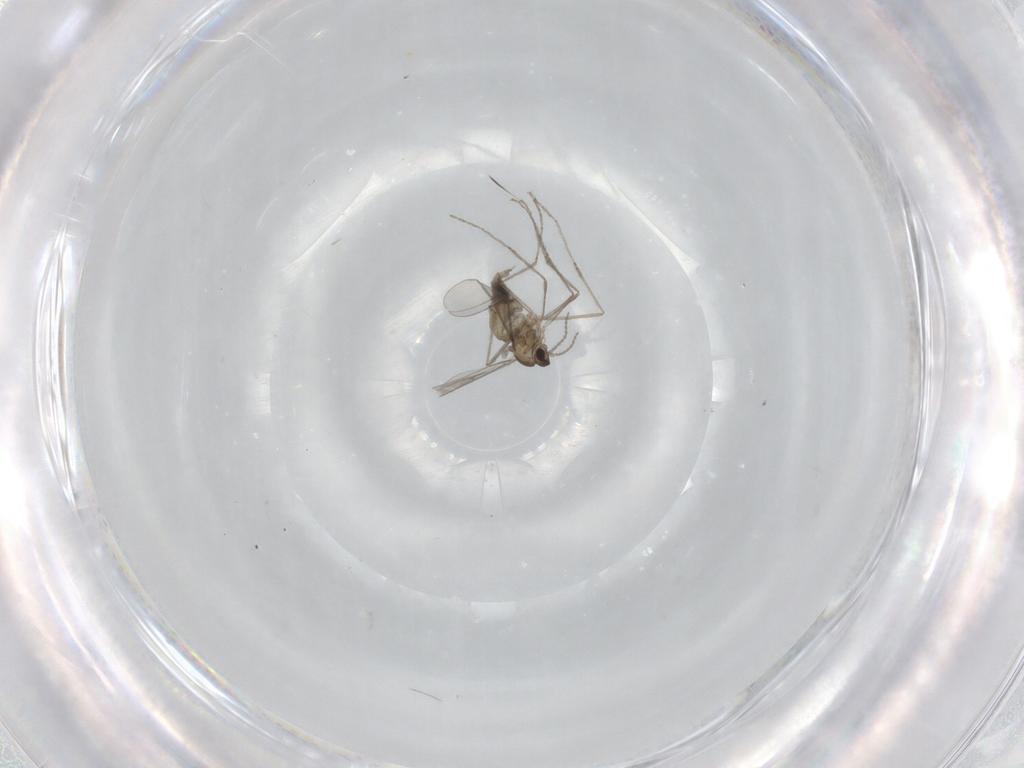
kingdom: Animalia
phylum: Arthropoda
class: Insecta
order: Diptera
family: Cecidomyiidae
